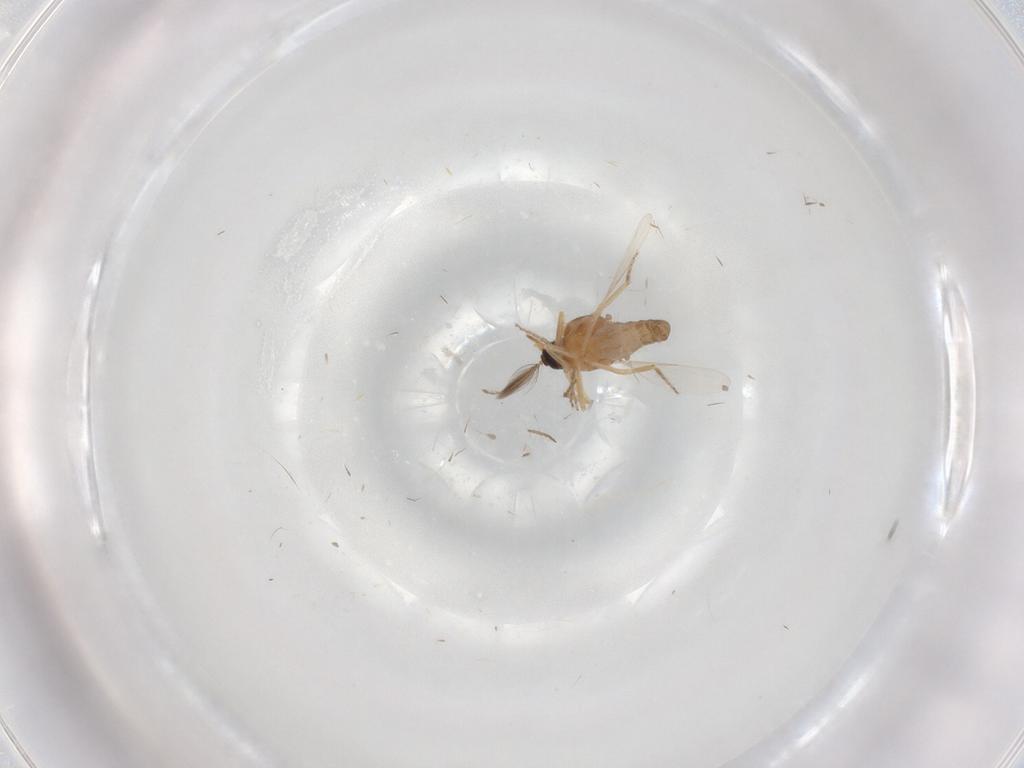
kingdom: Animalia
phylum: Arthropoda
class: Insecta
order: Diptera
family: Ceratopogonidae
